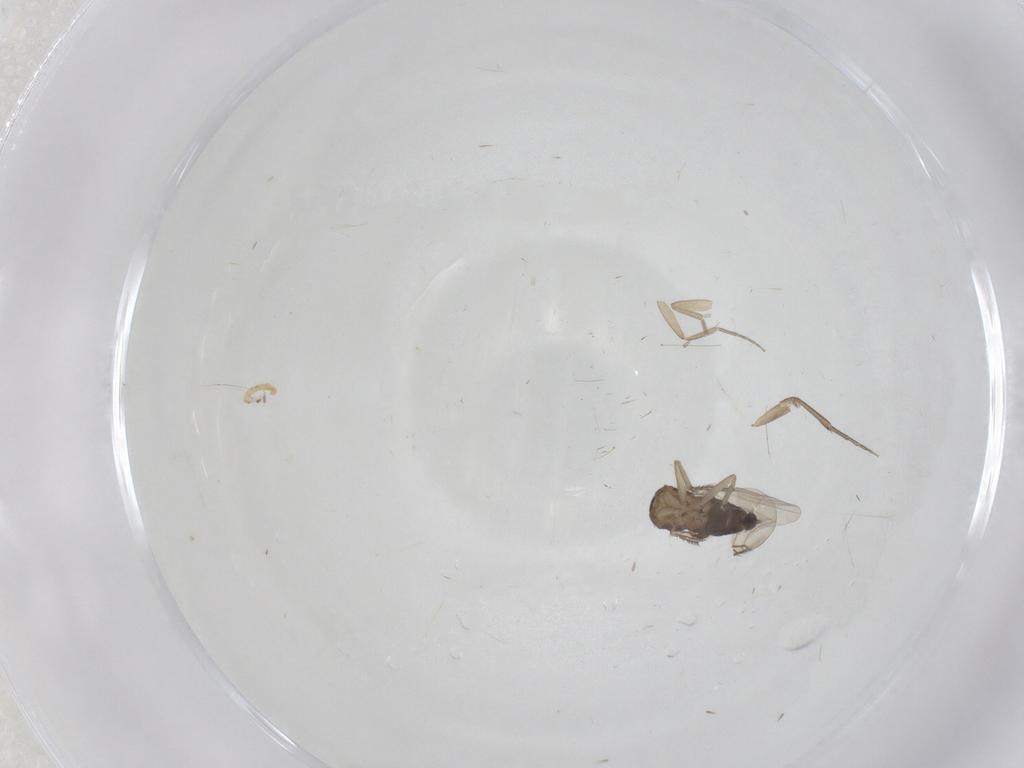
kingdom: Animalia
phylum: Arthropoda
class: Insecta
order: Diptera
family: Phoridae
